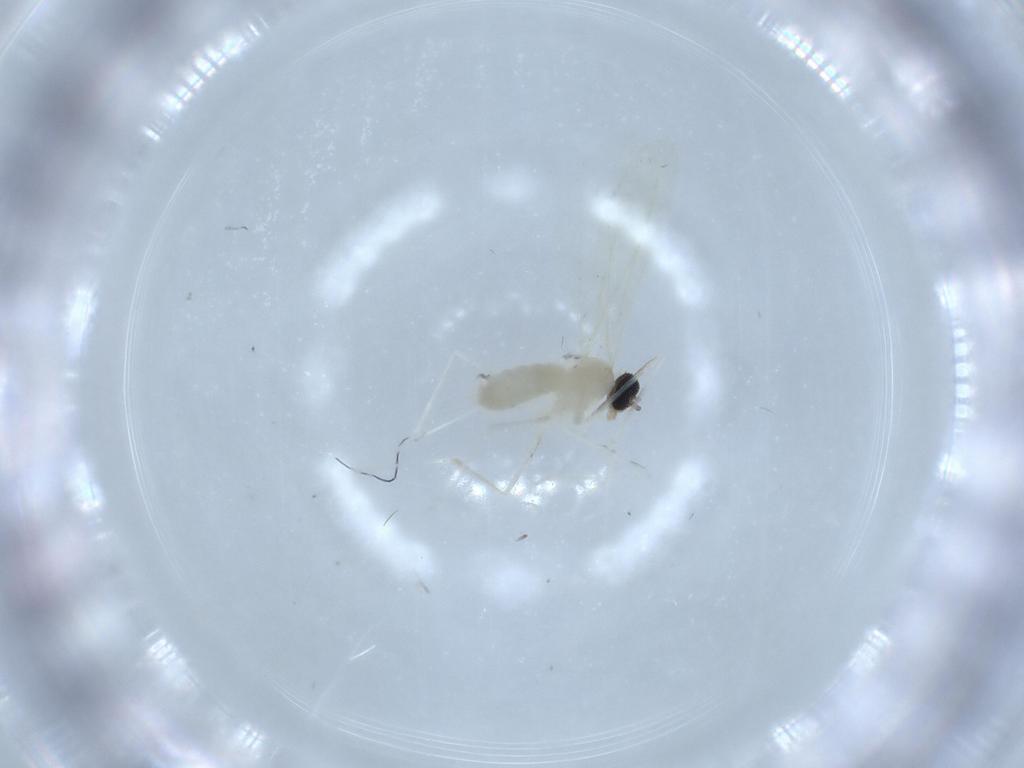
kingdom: Animalia
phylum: Arthropoda
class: Insecta
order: Diptera
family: Cecidomyiidae
